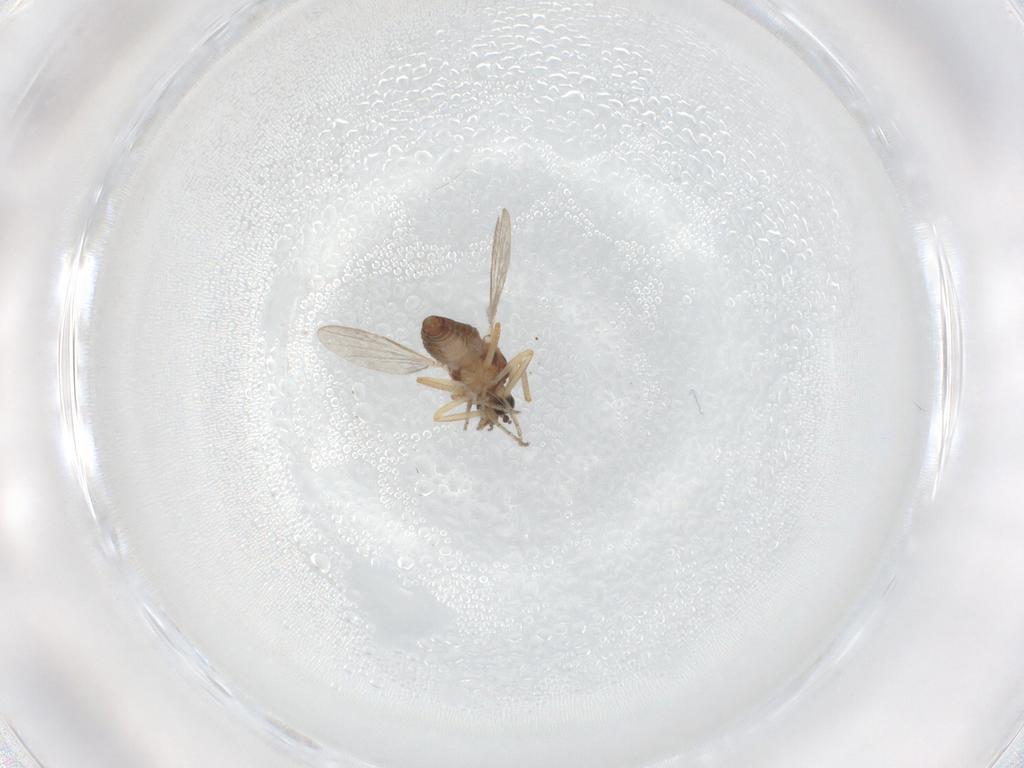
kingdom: Animalia
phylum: Arthropoda
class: Insecta
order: Diptera
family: Ceratopogonidae
